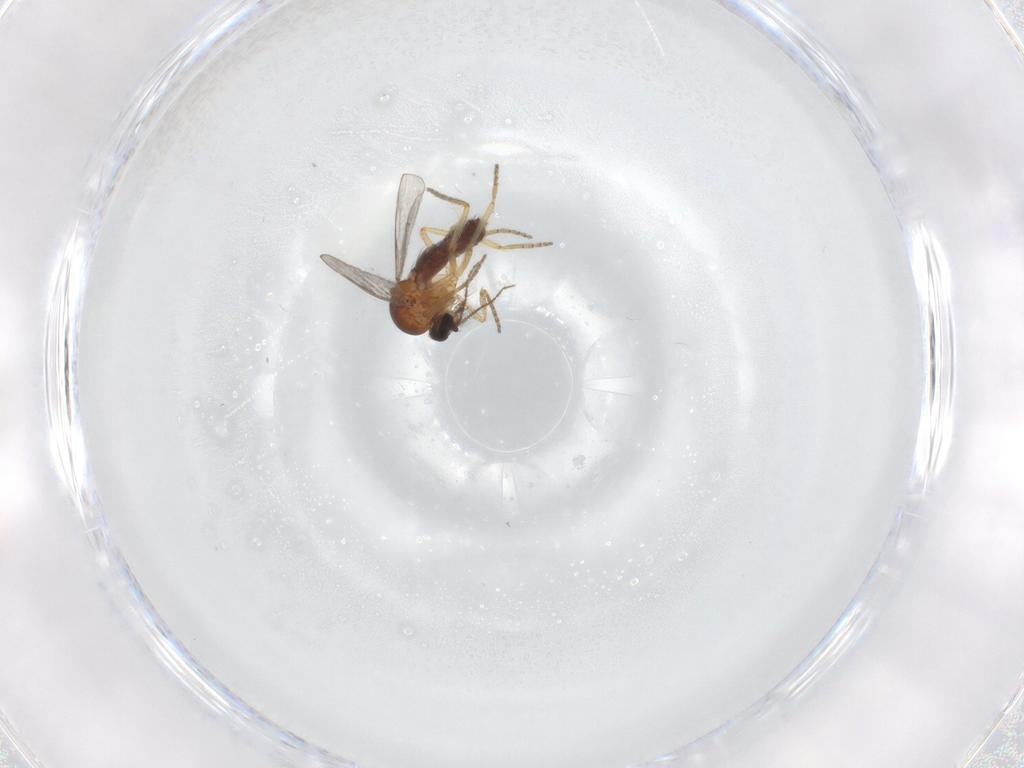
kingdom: Animalia
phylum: Arthropoda
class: Insecta
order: Diptera
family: Ceratopogonidae
